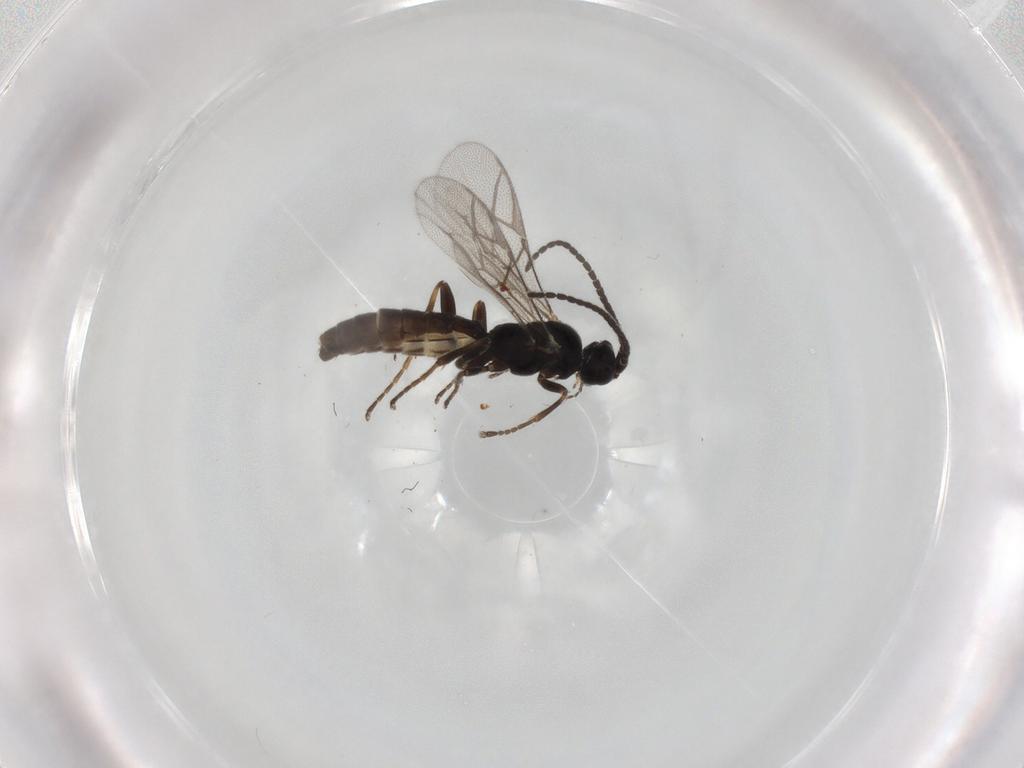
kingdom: Animalia
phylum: Arthropoda
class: Insecta
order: Hymenoptera
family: Ichneumonidae
